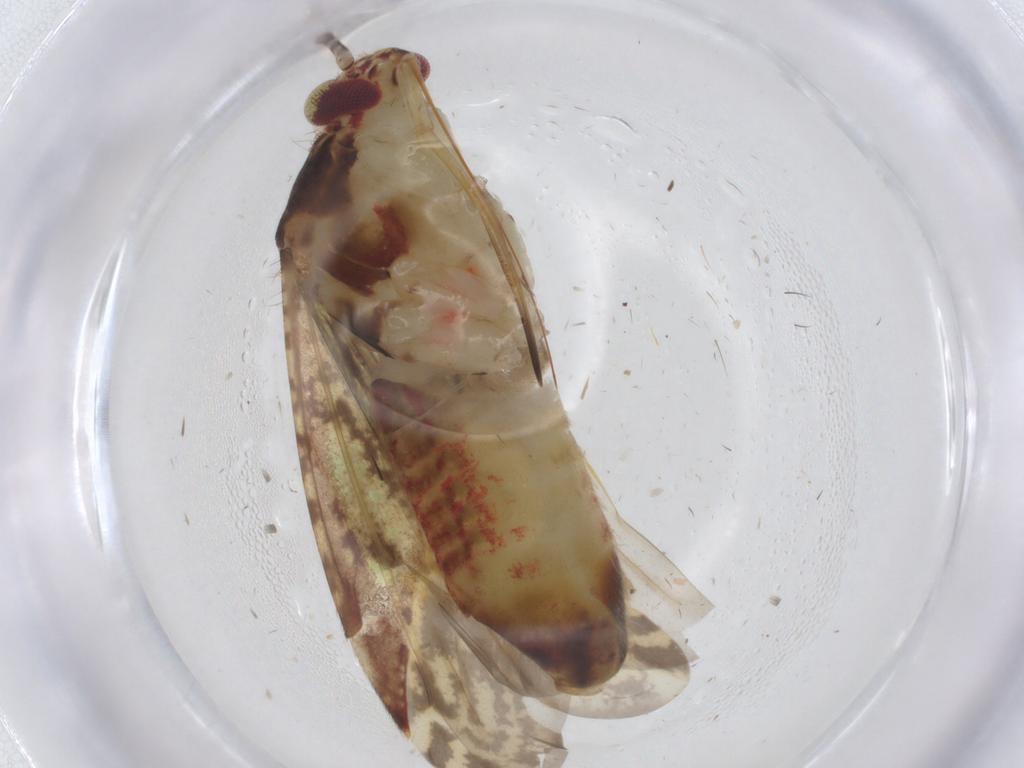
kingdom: Animalia
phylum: Arthropoda
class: Insecta
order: Hemiptera
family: Miridae
